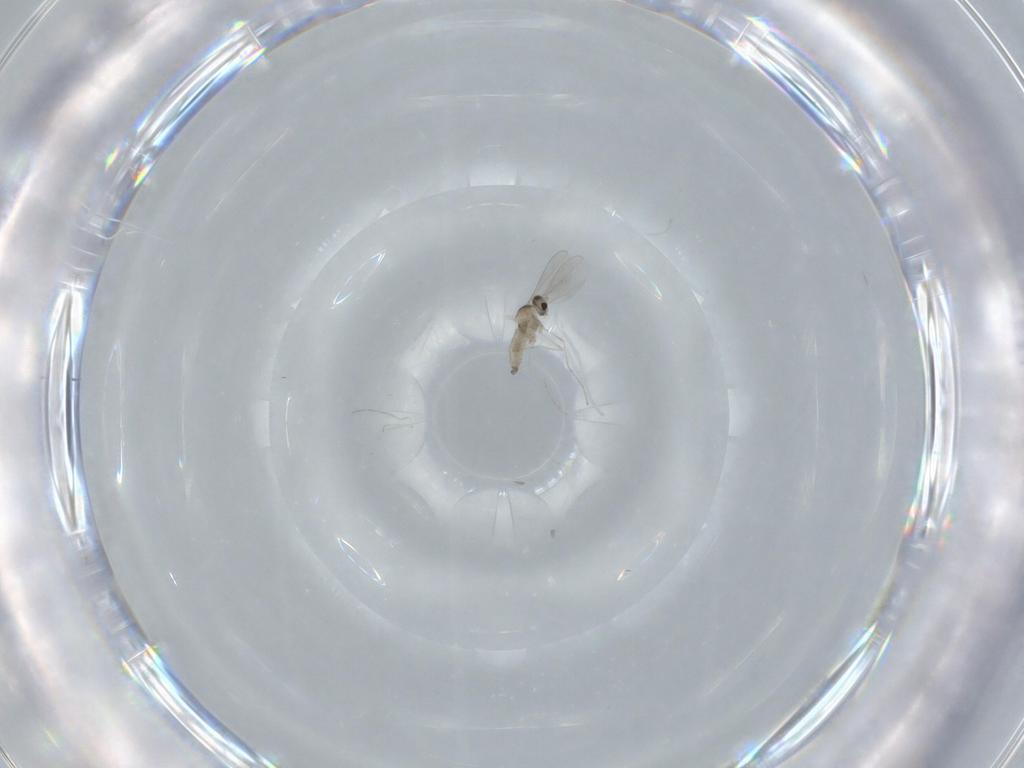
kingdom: Animalia
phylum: Arthropoda
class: Insecta
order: Diptera
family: Cecidomyiidae
